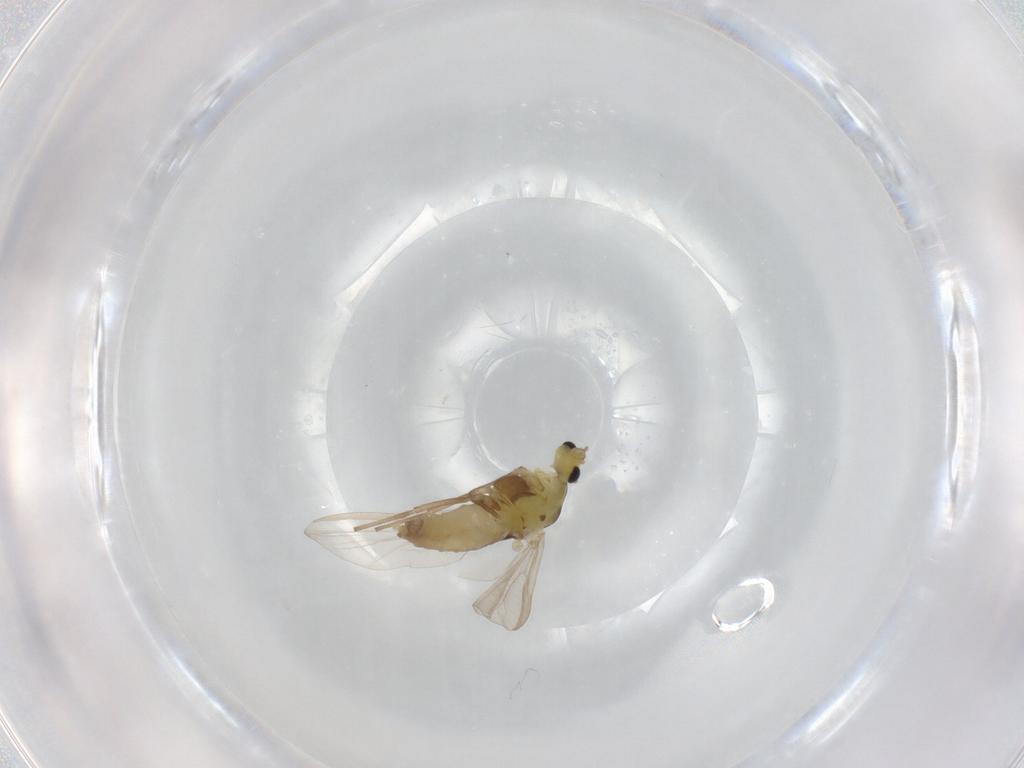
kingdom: Animalia
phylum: Arthropoda
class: Insecta
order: Diptera
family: Cecidomyiidae
